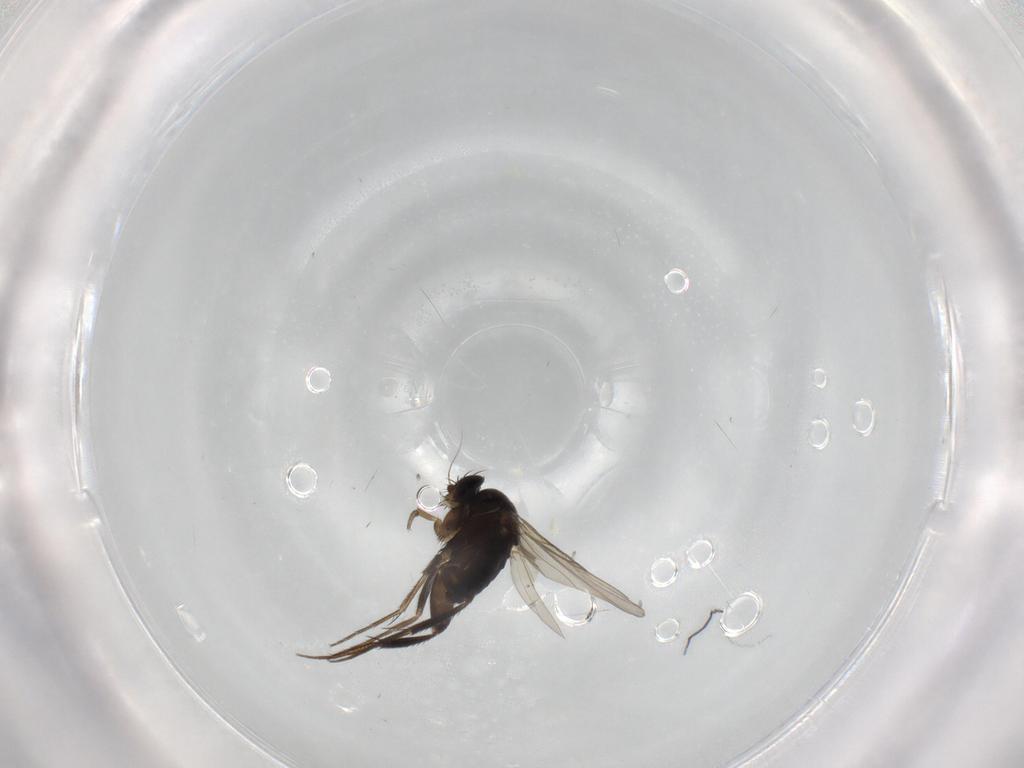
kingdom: Animalia
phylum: Arthropoda
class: Insecta
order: Diptera
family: Phoridae
